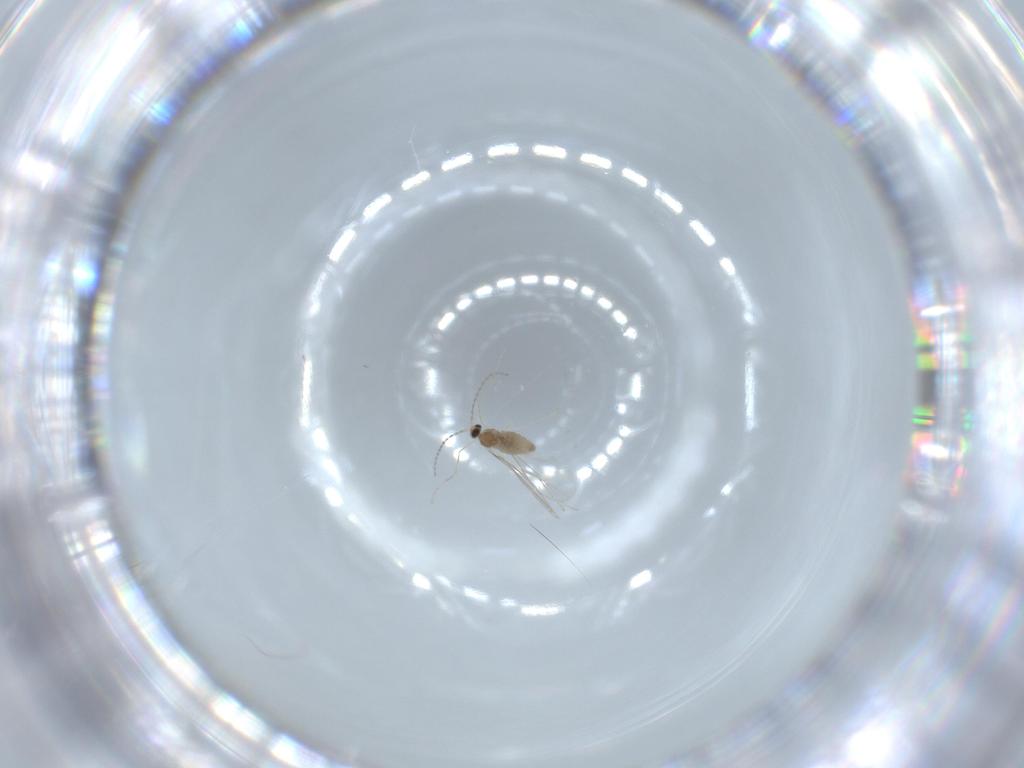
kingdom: Animalia
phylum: Arthropoda
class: Insecta
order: Diptera
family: Cecidomyiidae
